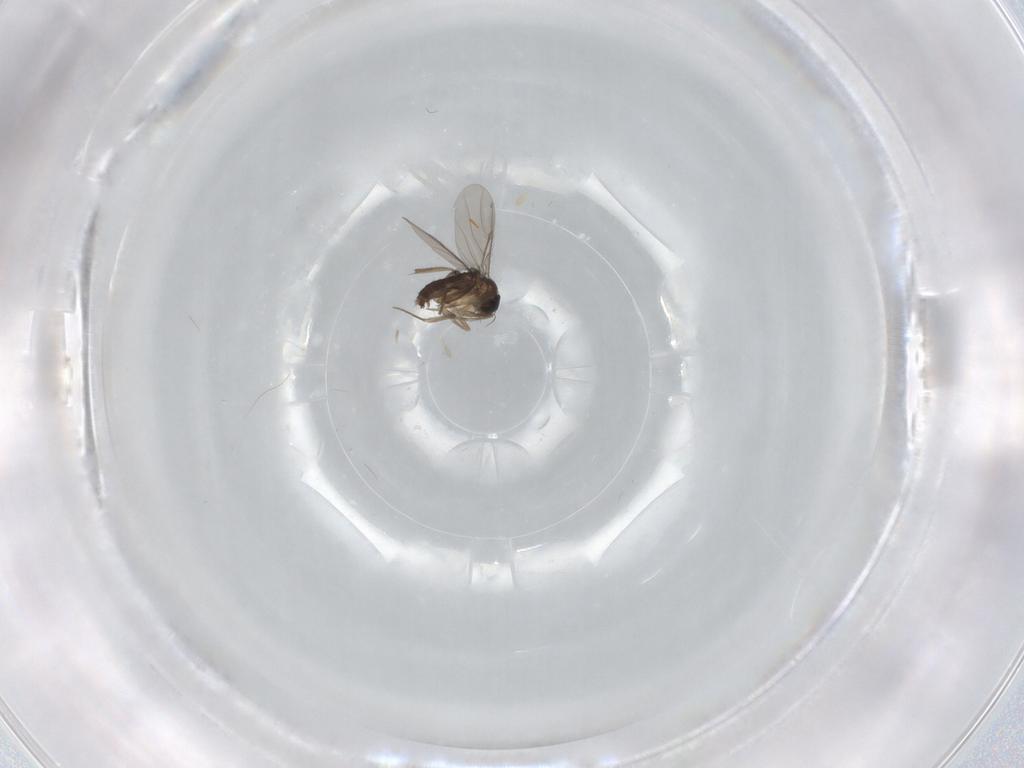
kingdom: Animalia
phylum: Arthropoda
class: Insecta
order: Diptera
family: Phoridae
